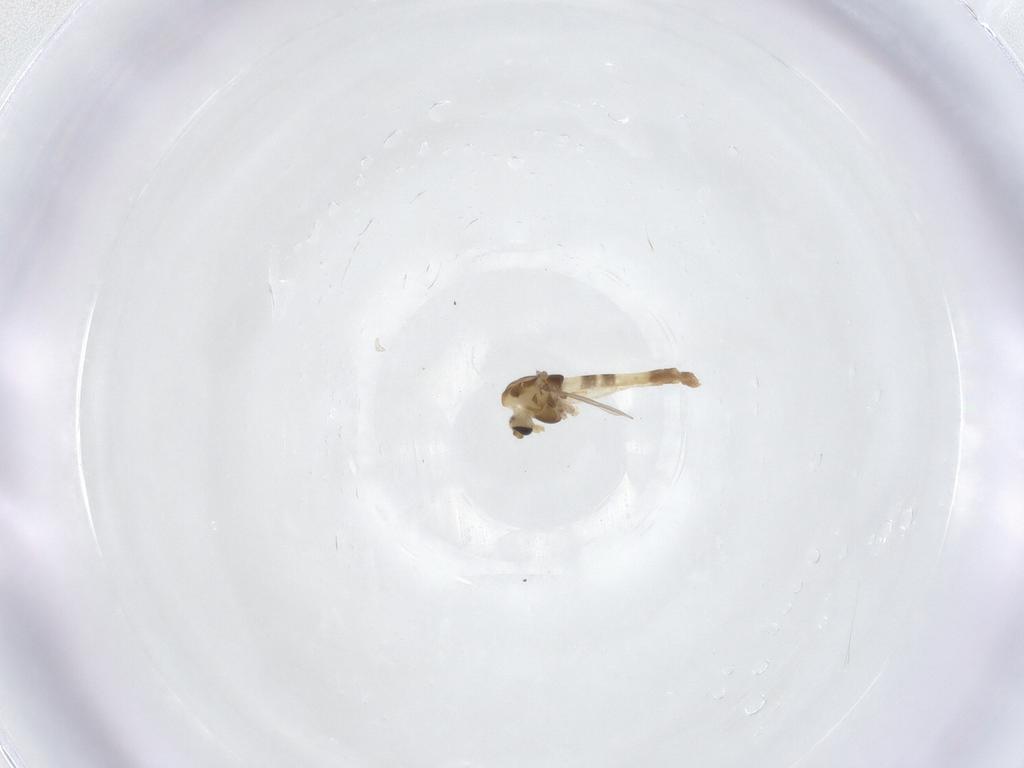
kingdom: Animalia
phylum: Arthropoda
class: Insecta
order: Diptera
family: Chironomidae
